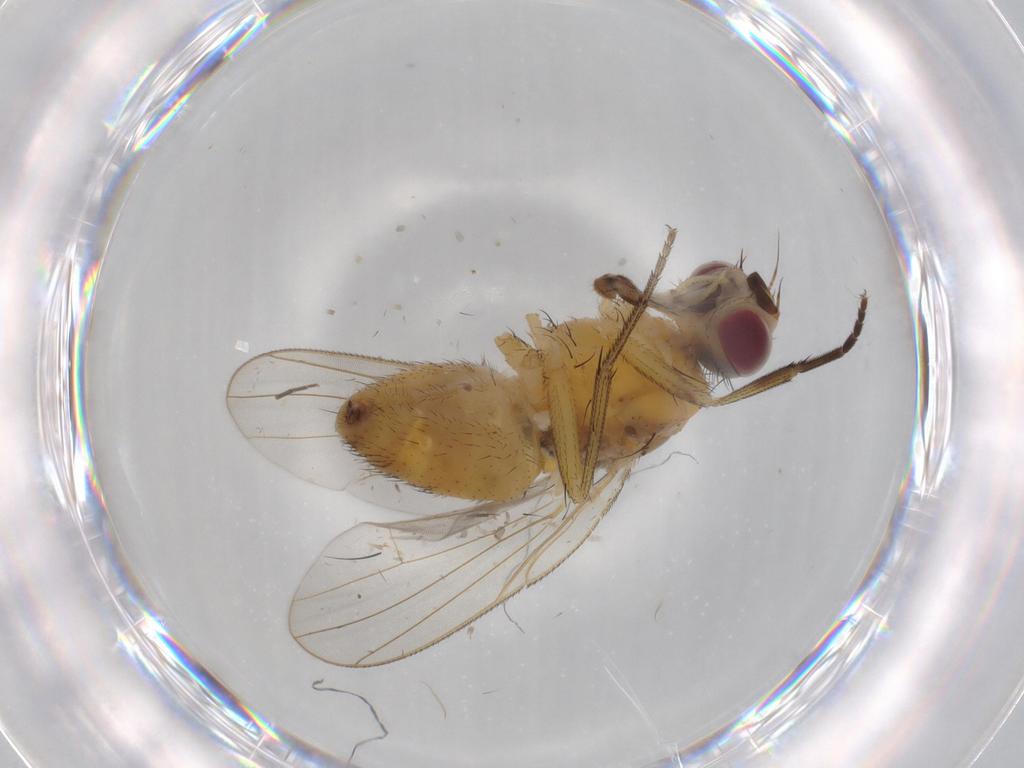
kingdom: Animalia
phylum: Arthropoda
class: Insecta
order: Diptera
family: Muscidae
